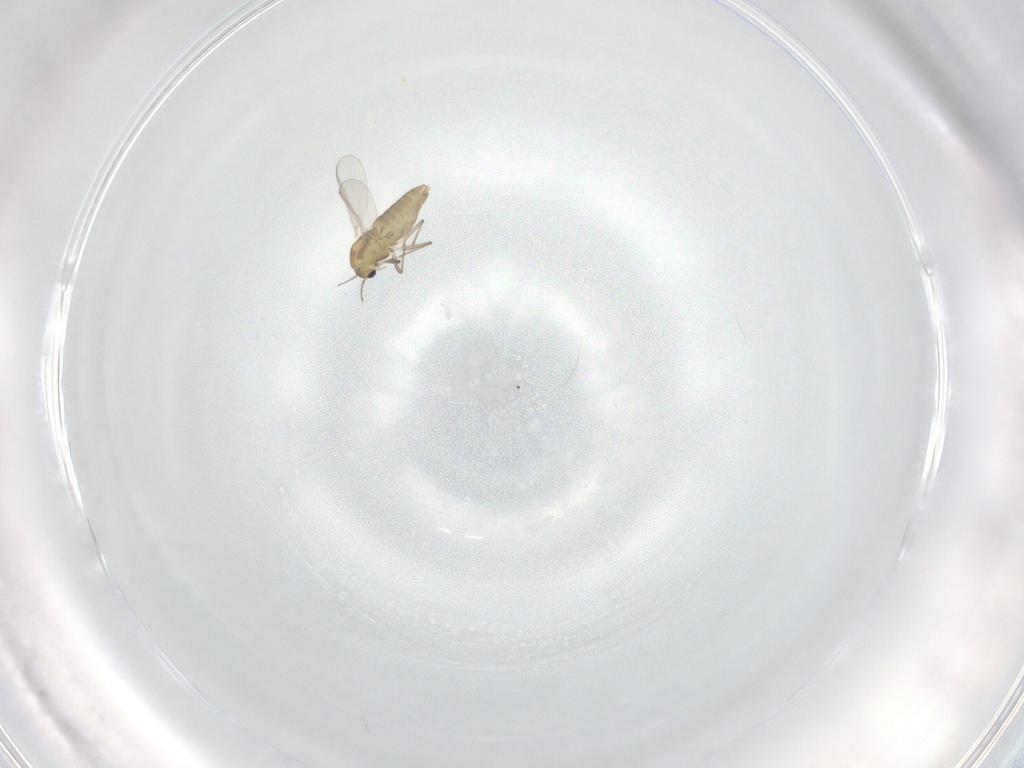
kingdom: Animalia
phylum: Arthropoda
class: Insecta
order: Diptera
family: Chironomidae
